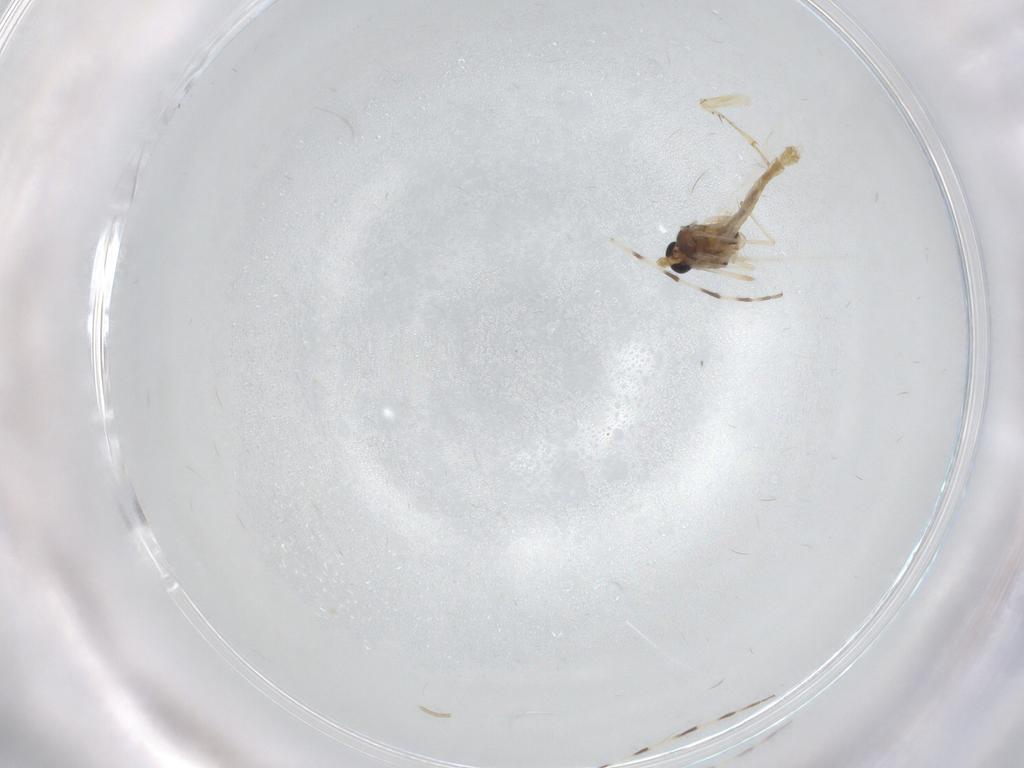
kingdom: Animalia
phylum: Arthropoda
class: Insecta
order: Diptera
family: Chironomidae
